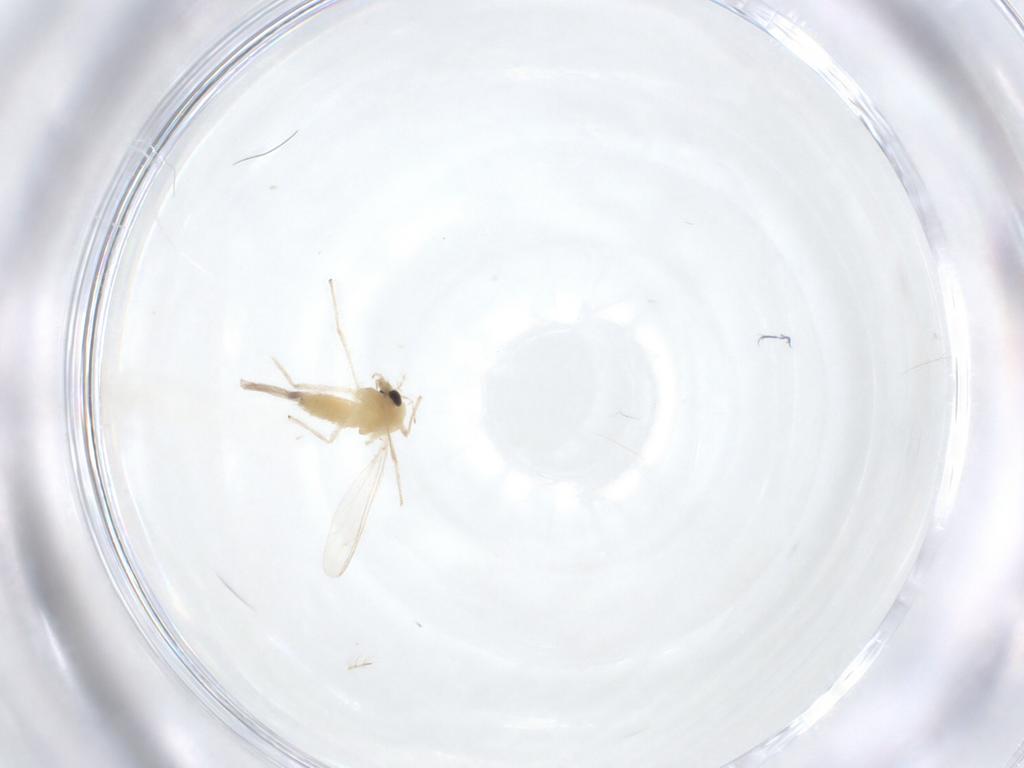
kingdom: Animalia
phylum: Arthropoda
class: Insecta
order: Diptera
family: Chironomidae
